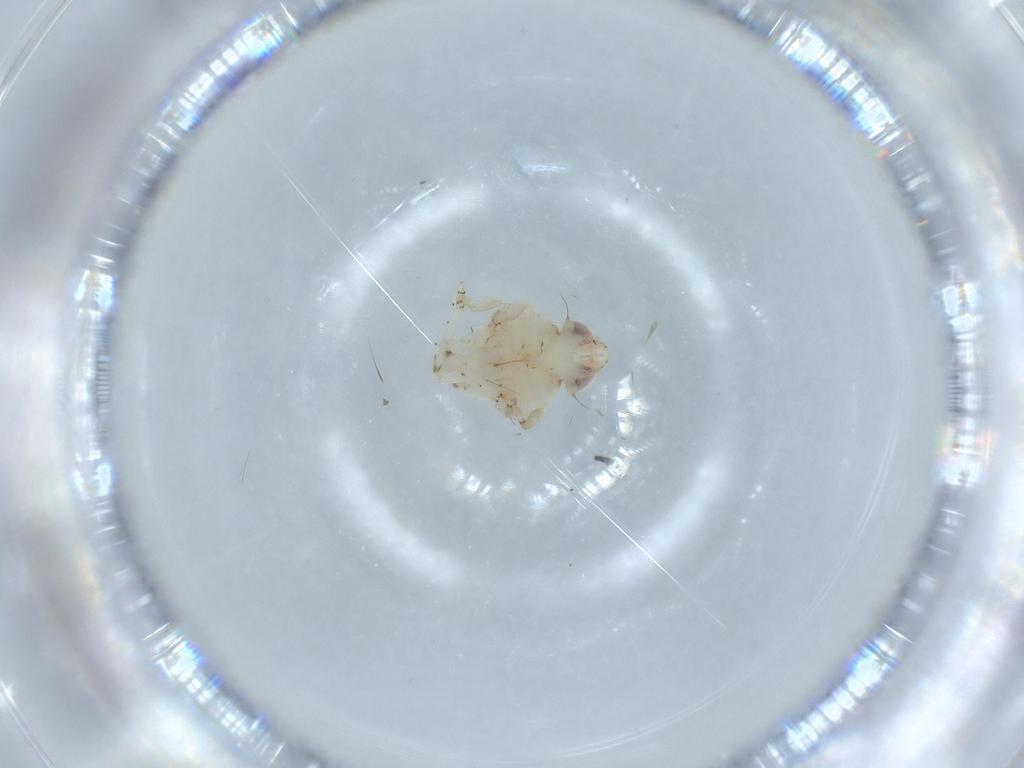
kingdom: Animalia
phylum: Arthropoda
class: Insecta
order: Hemiptera
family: Nogodinidae
